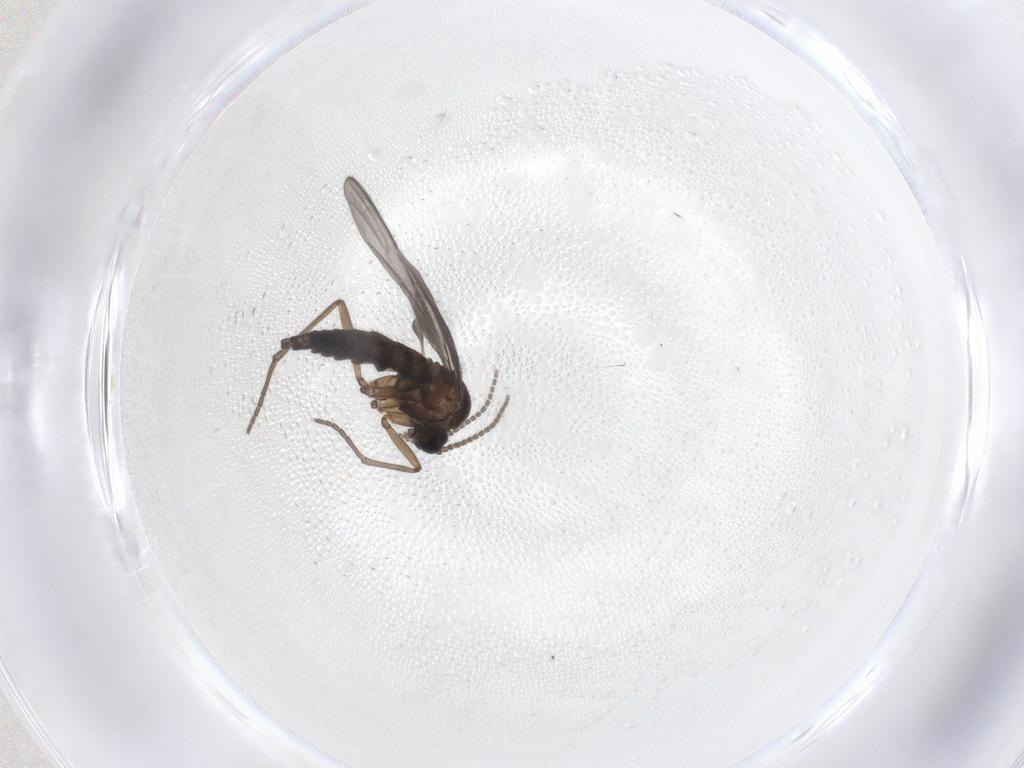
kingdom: Animalia
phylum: Arthropoda
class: Insecta
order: Diptera
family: Sciaridae
